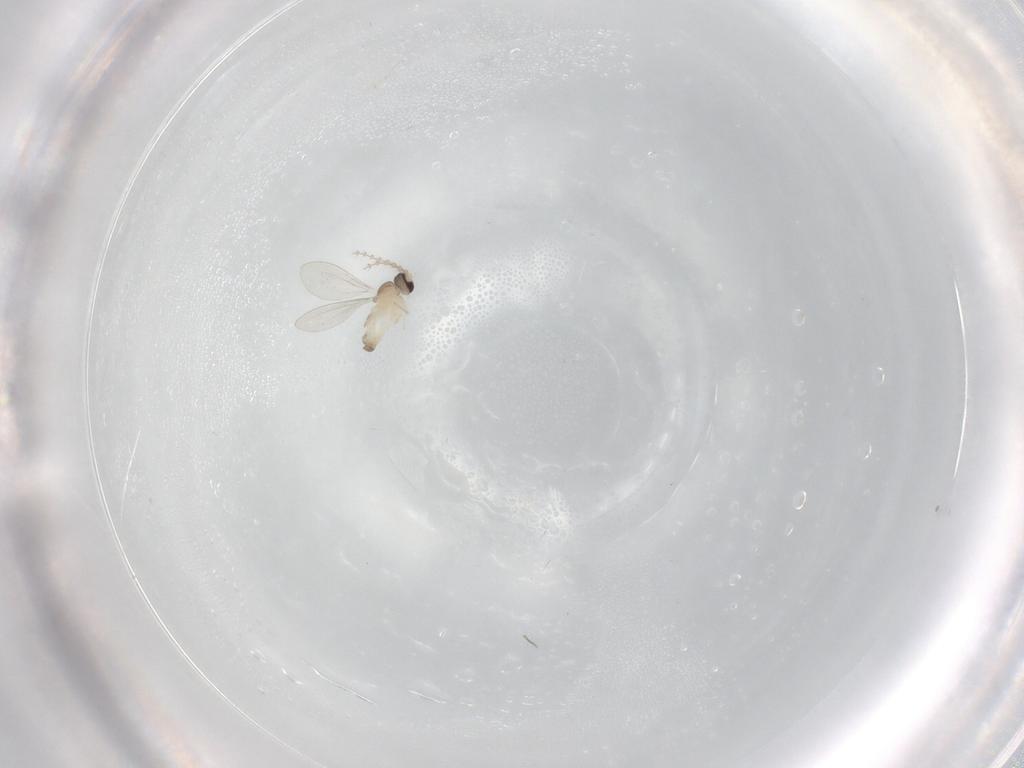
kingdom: Animalia
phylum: Arthropoda
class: Insecta
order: Diptera
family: Cecidomyiidae
